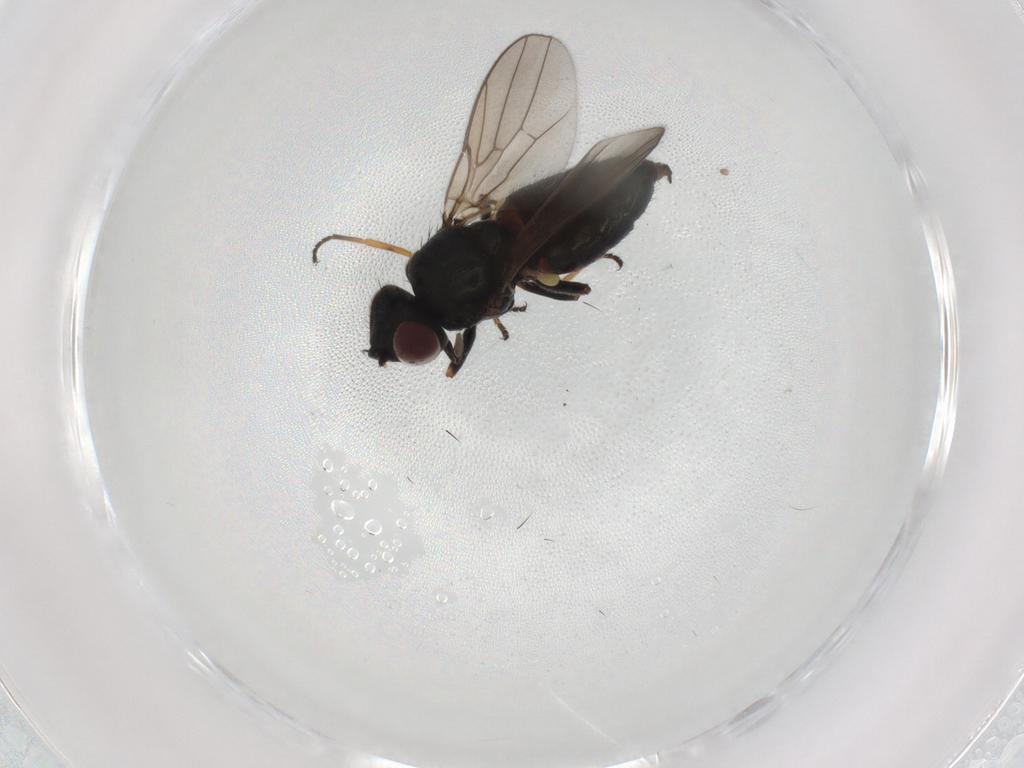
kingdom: Animalia
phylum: Arthropoda
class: Insecta
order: Diptera
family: Chloropidae
